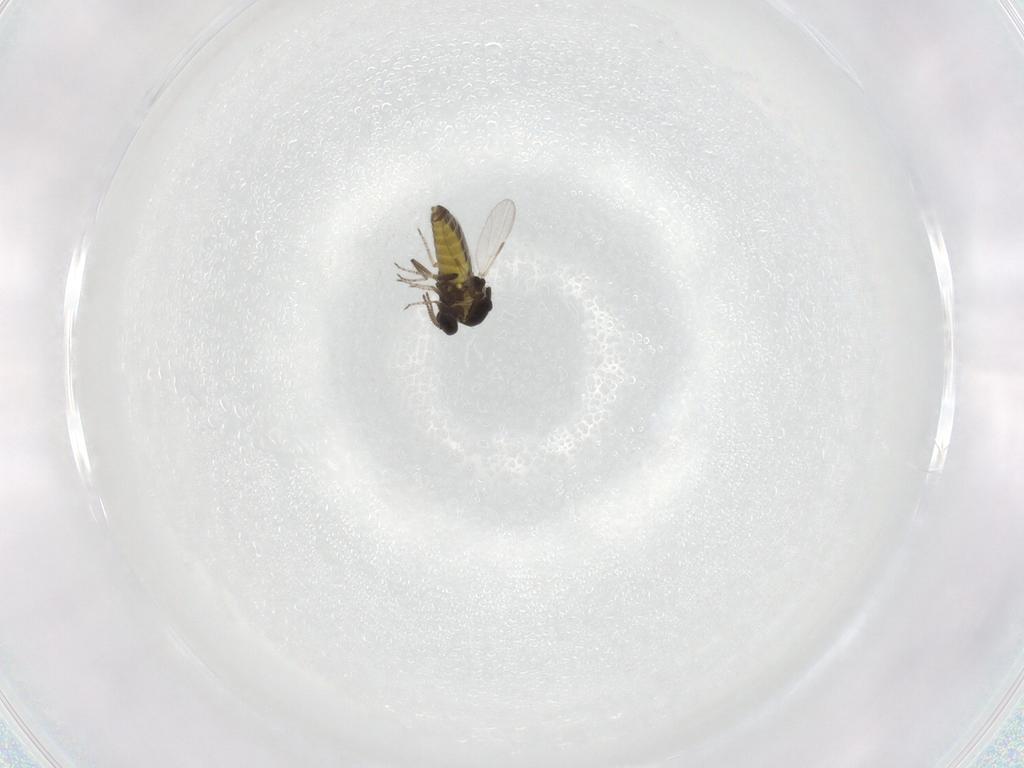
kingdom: Animalia
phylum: Arthropoda
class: Insecta
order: Diptera
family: Ceratopogonidae
